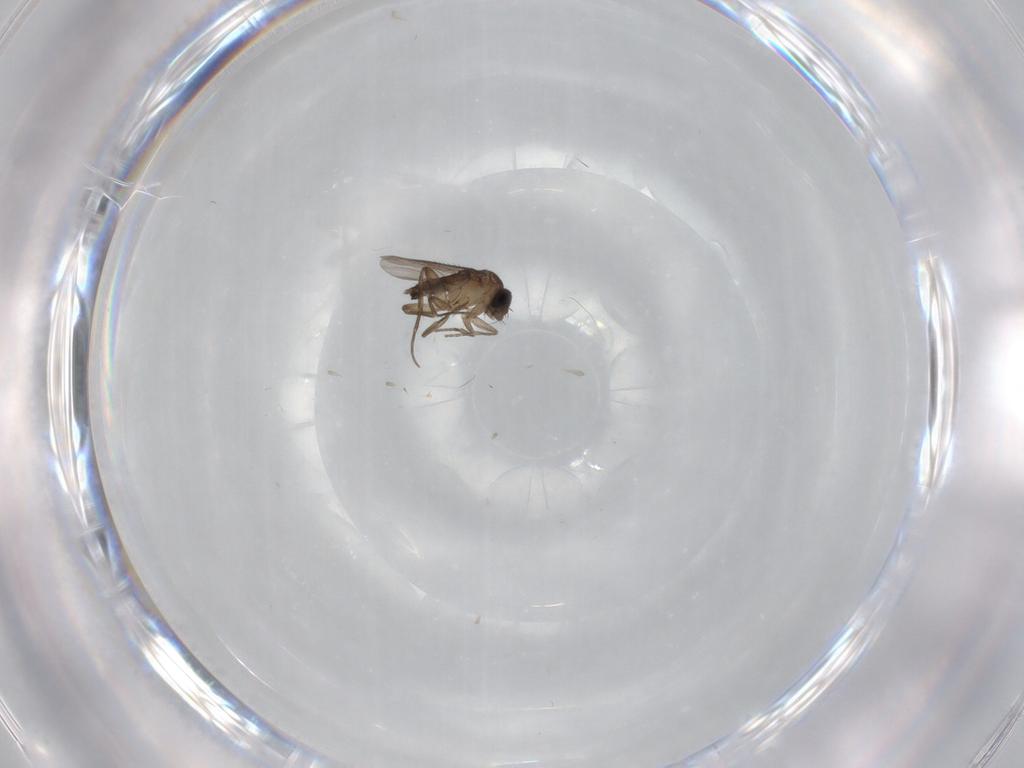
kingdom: Animalia
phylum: Arthropoda
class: Insecta
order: Diptera
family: Phoridae
